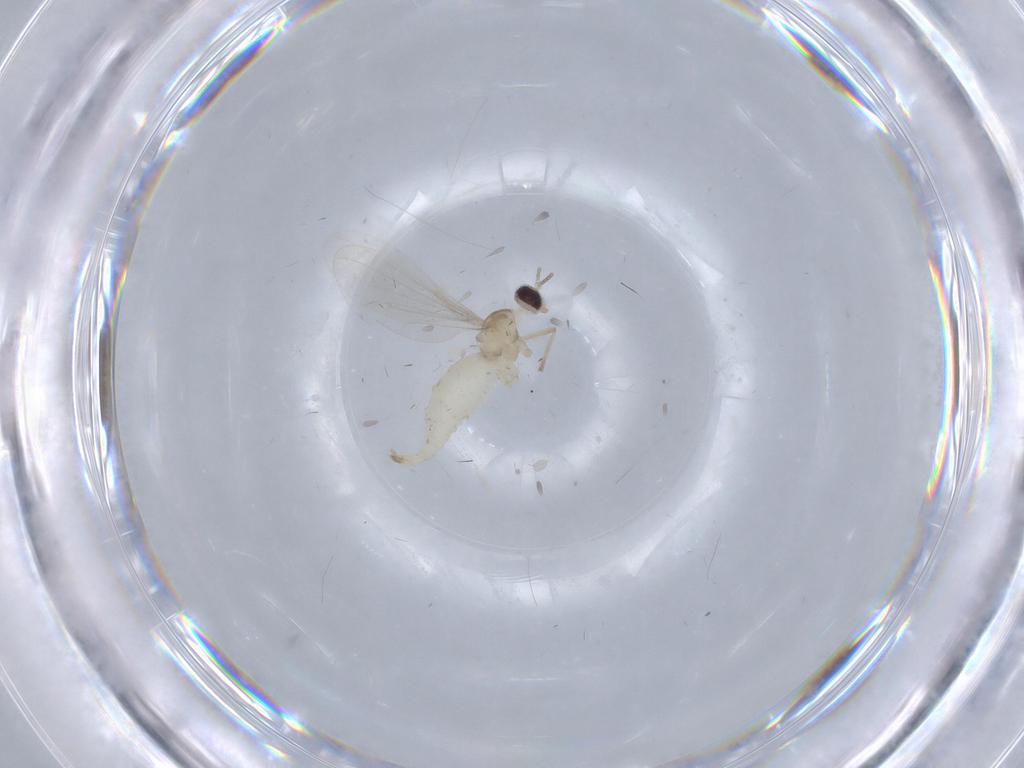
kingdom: Animalia
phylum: Arthropoda
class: Insecta
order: Diptera
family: Cecidomyiidae
